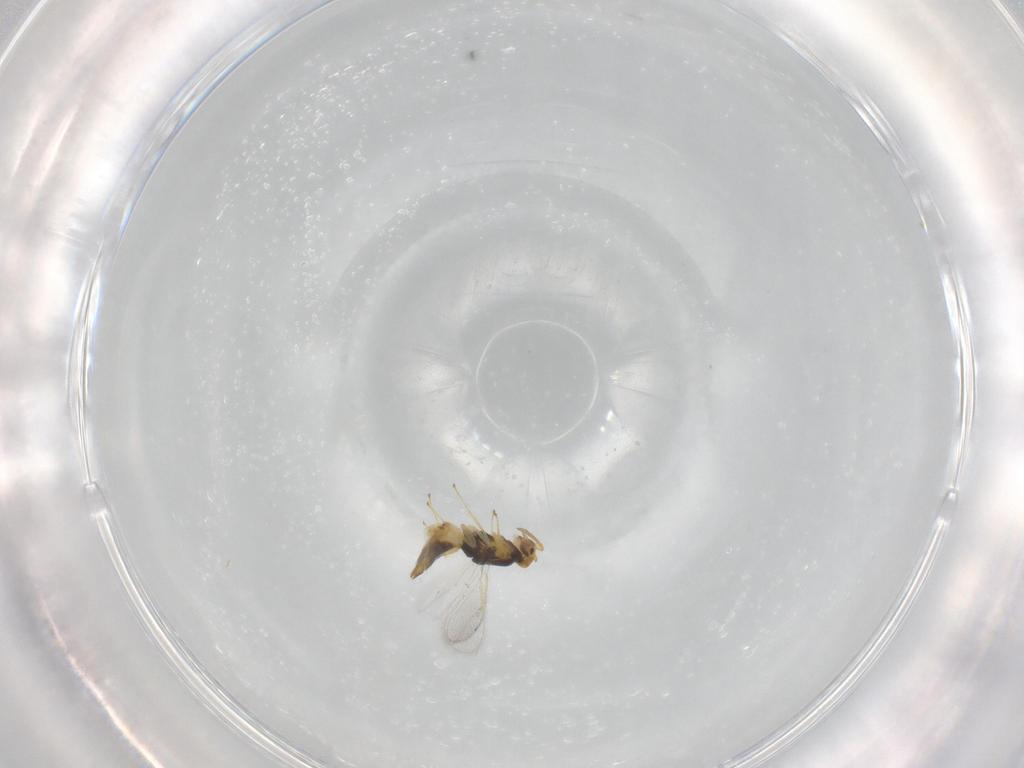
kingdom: Animalia
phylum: Arthropoda
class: Insecta
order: Hymenoptera
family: Eulophidae
